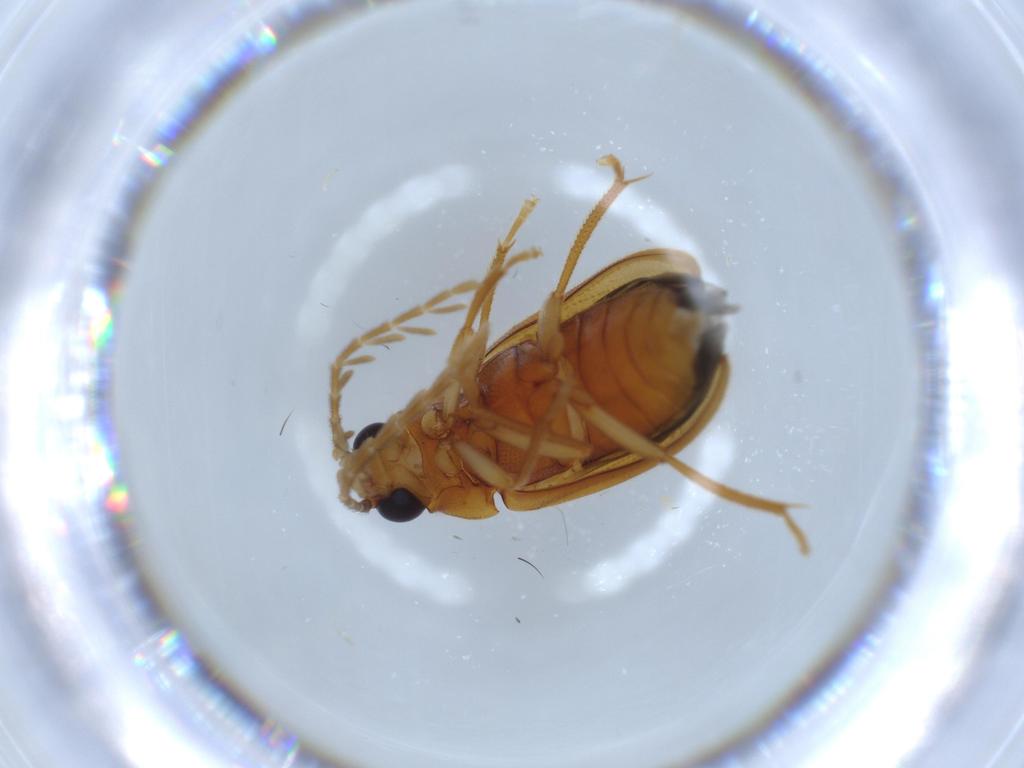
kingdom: Animalia
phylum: Arthropoda
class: Insecta
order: Coleoptera
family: Ptilodactylidae
